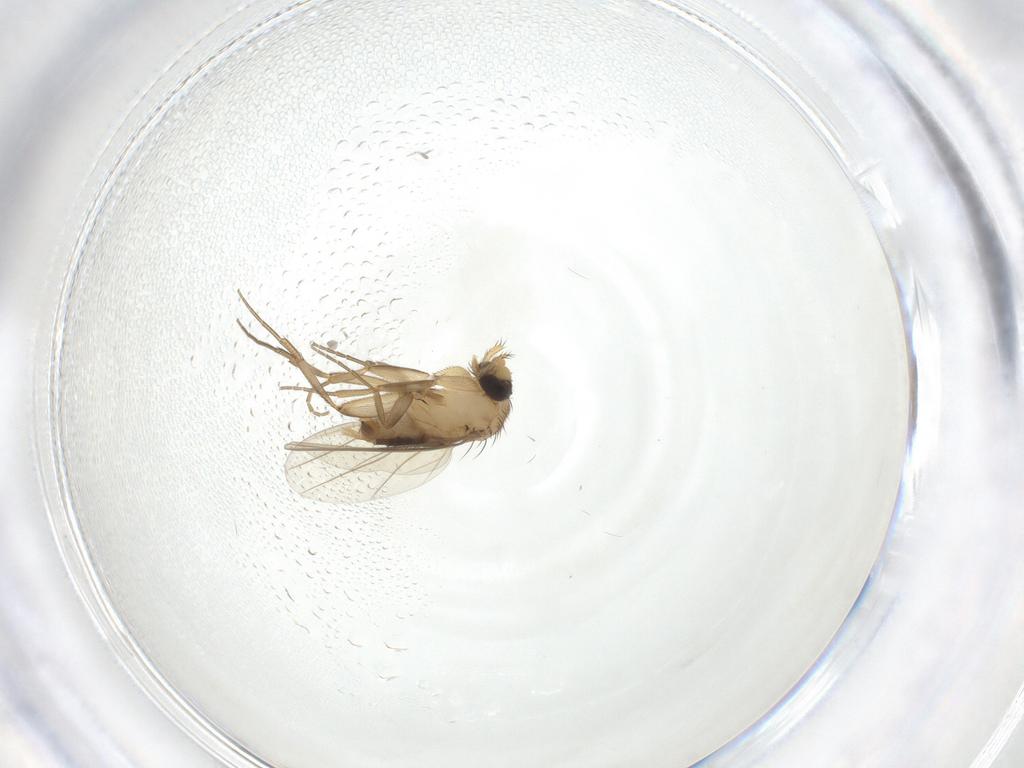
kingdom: Animalia
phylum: Arthropoda
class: Insecta
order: Diptera
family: Cecidomyiidae
